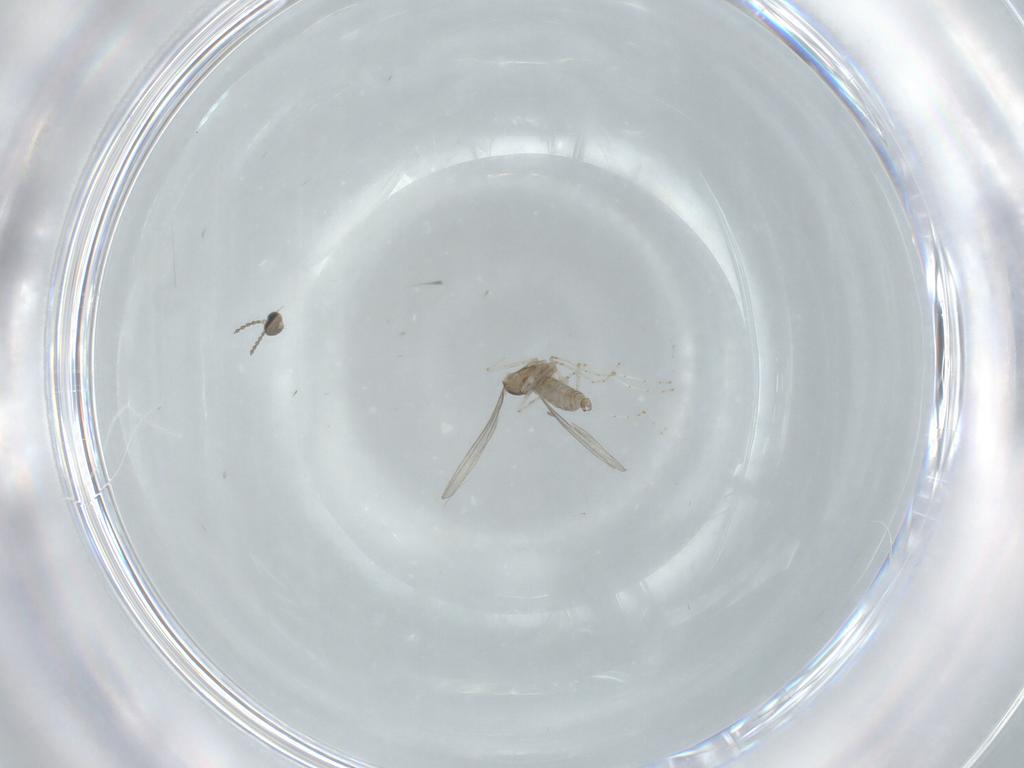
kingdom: Animalia
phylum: Arthropoda
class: Insecta
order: Diptera
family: Cecidomyiidae
